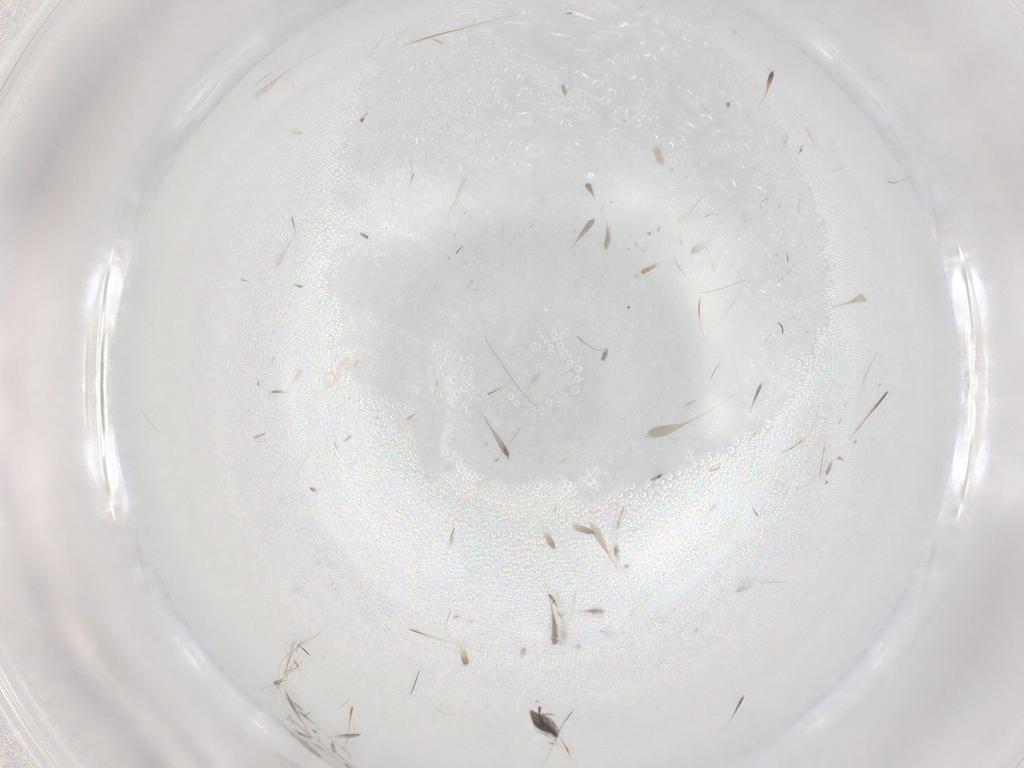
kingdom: Animalia
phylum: Arthropoda
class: Insecta
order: Diptera
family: Ceratopogonidae
